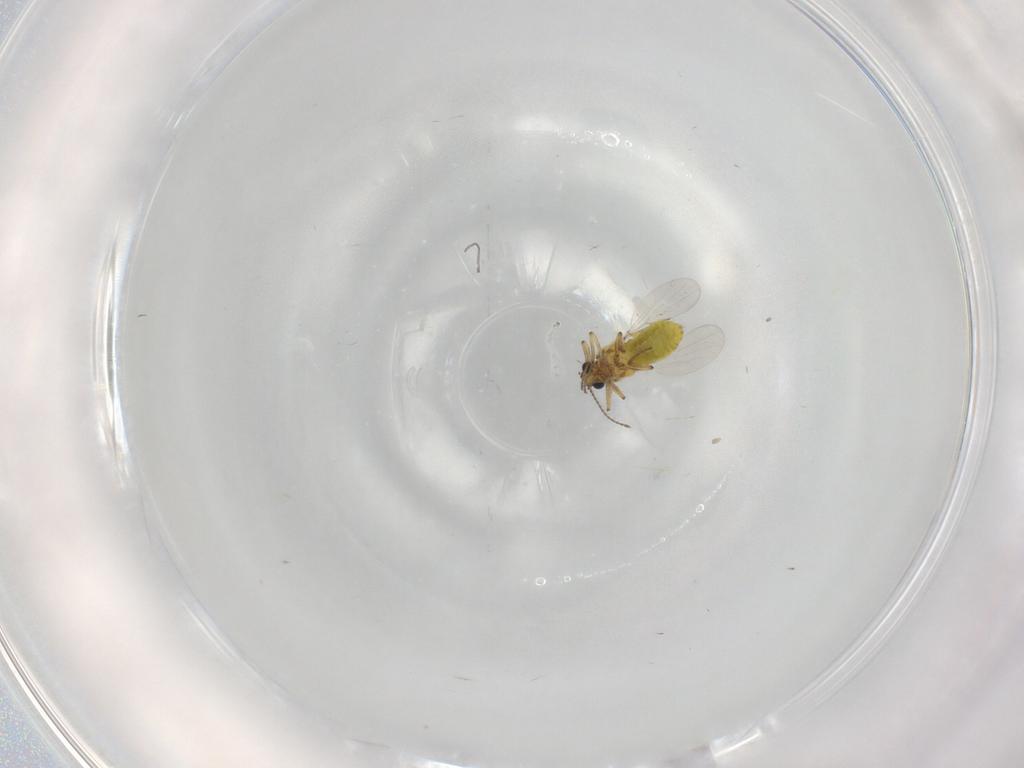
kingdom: Animalia
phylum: Arthropoda
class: Insecta
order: Diptera
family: Ceratopogonidae
